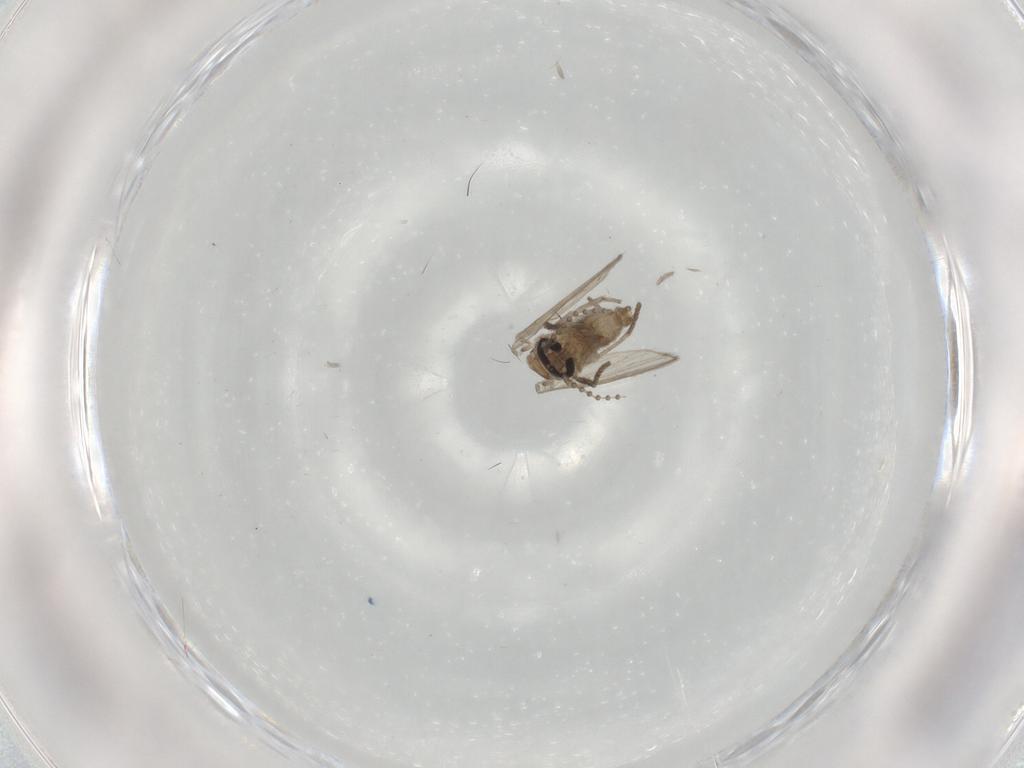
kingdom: Animalia
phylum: Arthropoda
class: Insecta
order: Diptera
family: Psychodidae
